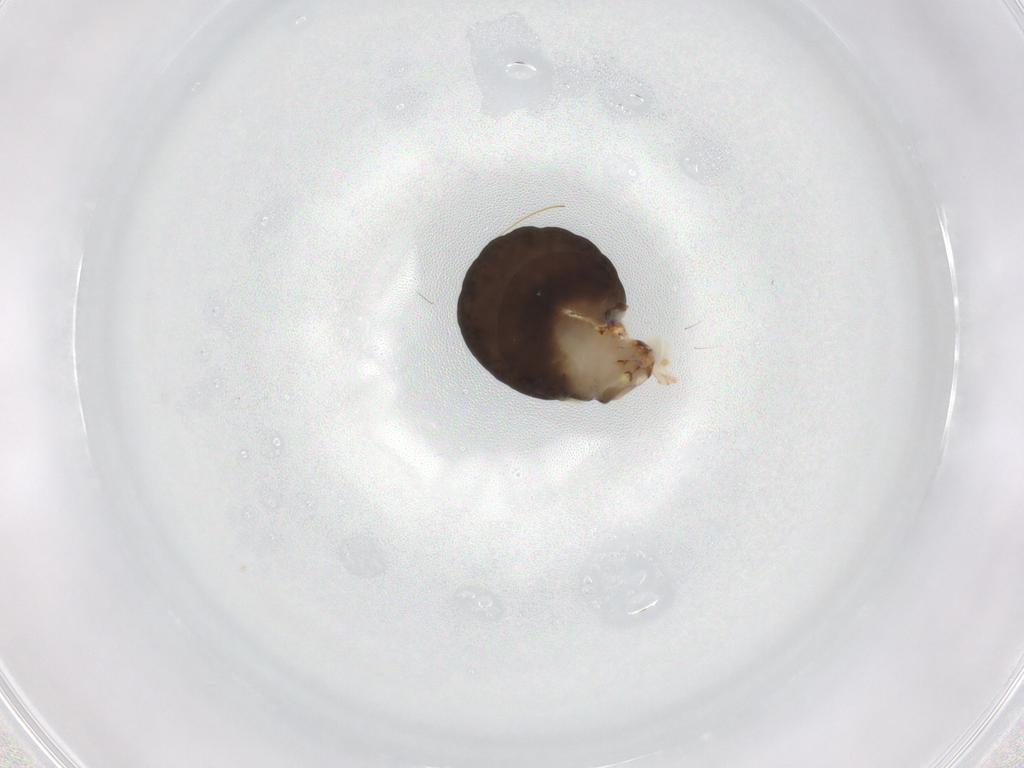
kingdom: Animalia
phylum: Arthropoda
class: Insecta
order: Hymenoptera
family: Dryinidae
